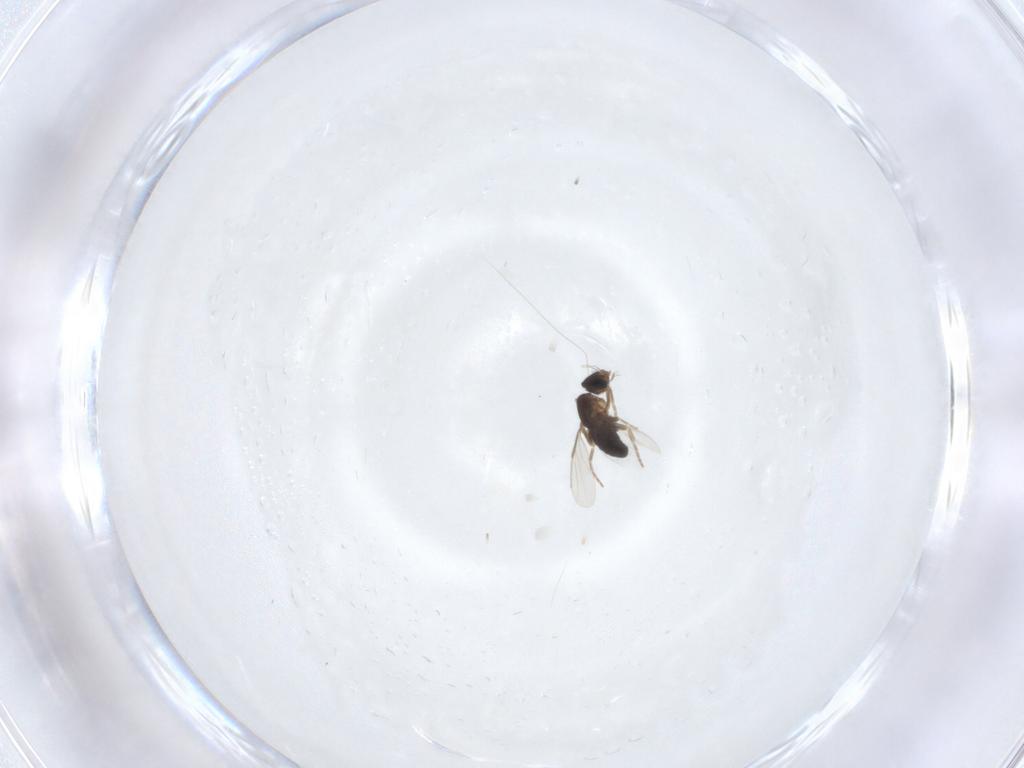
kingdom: Animalia
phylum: Arthropoda
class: Insecta
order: Diptera
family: Phoridae
